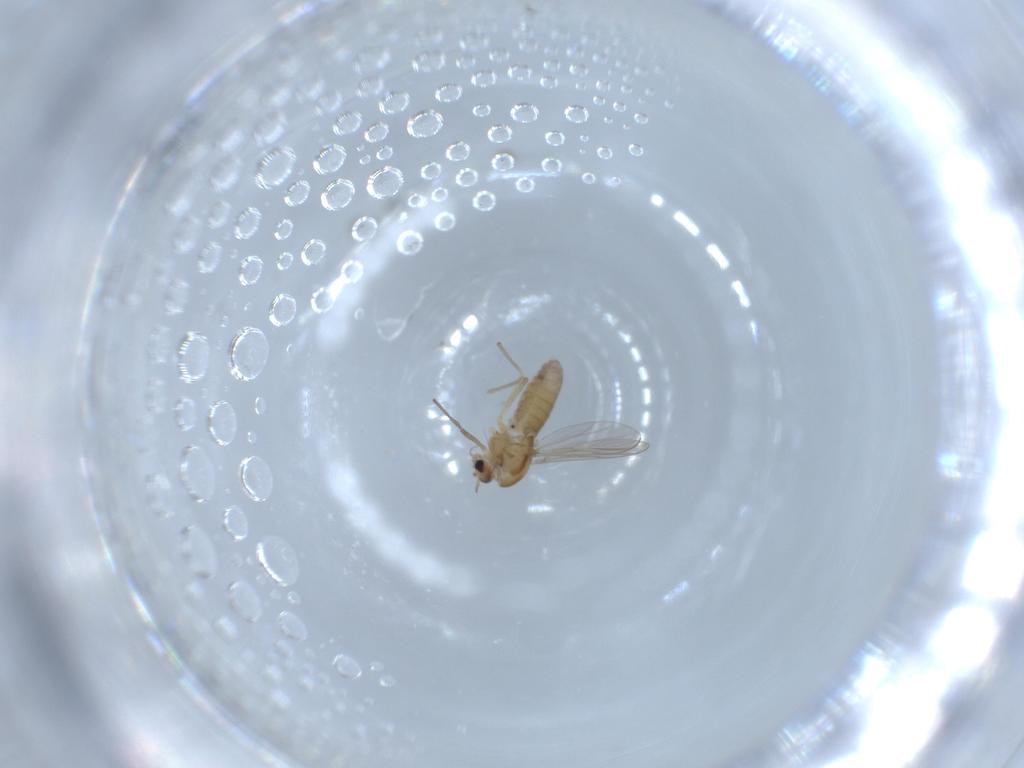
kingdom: Animalia
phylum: Arthropoda
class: Insecta
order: Diptera
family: Chironomidae
